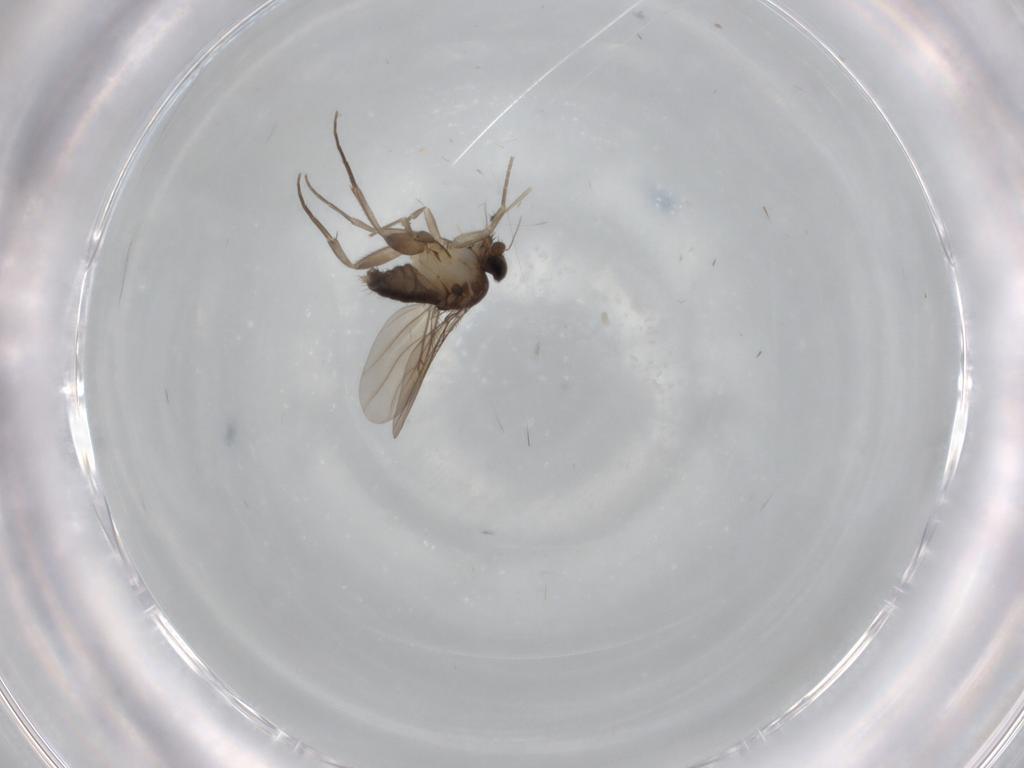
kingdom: Animalia
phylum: Arthropoda
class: Insecta
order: Diptera
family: Phoridae
